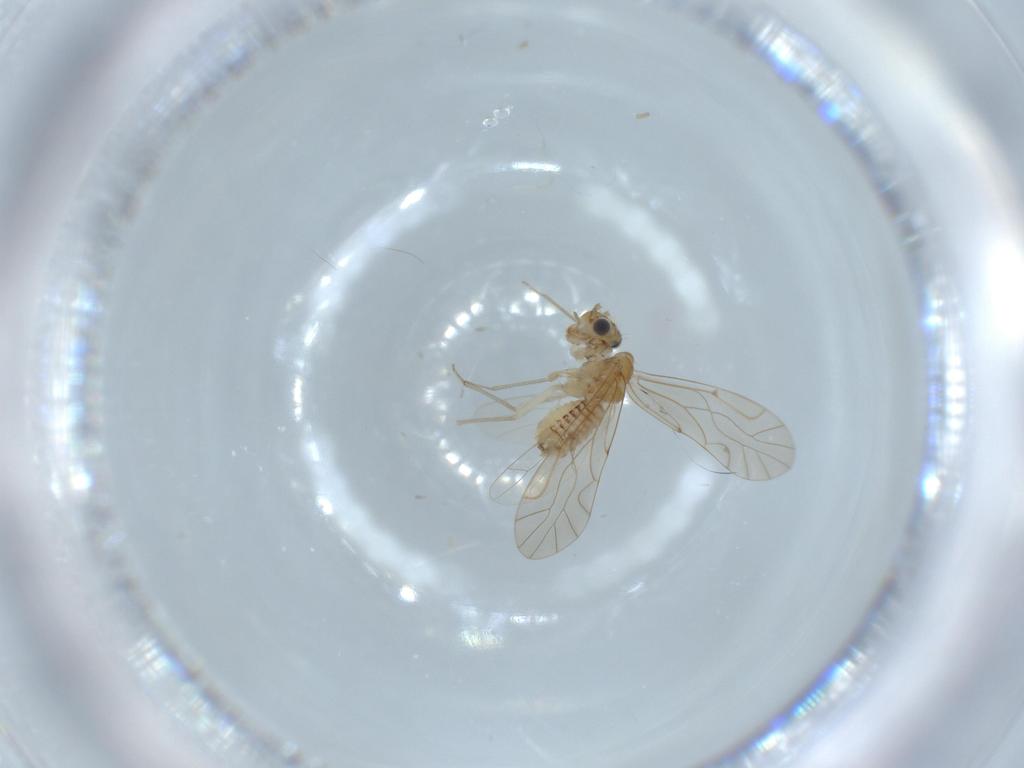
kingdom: Animalia
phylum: Arthropoda
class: Insecta
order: Psocodea
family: Lachesillidae
